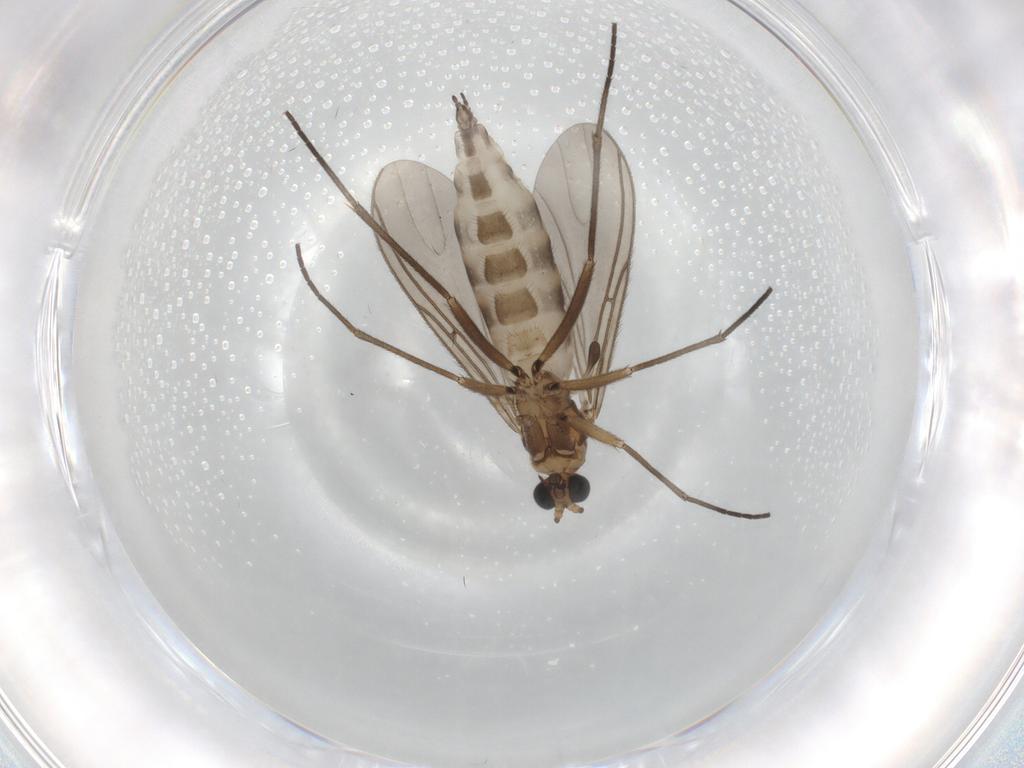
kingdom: Animalia
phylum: Arthropoda
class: Insecta
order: Diptera
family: Sciaridae
